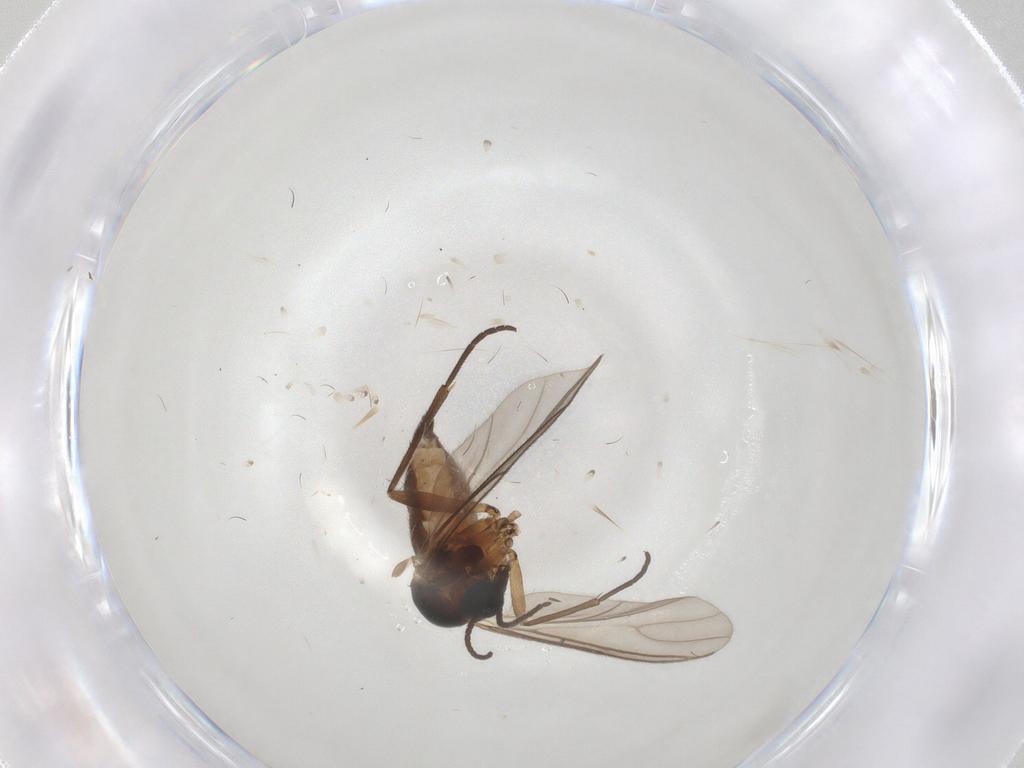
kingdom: Animalia
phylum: Arthropoda
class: Insecta
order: Diptera
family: Sciaridae
